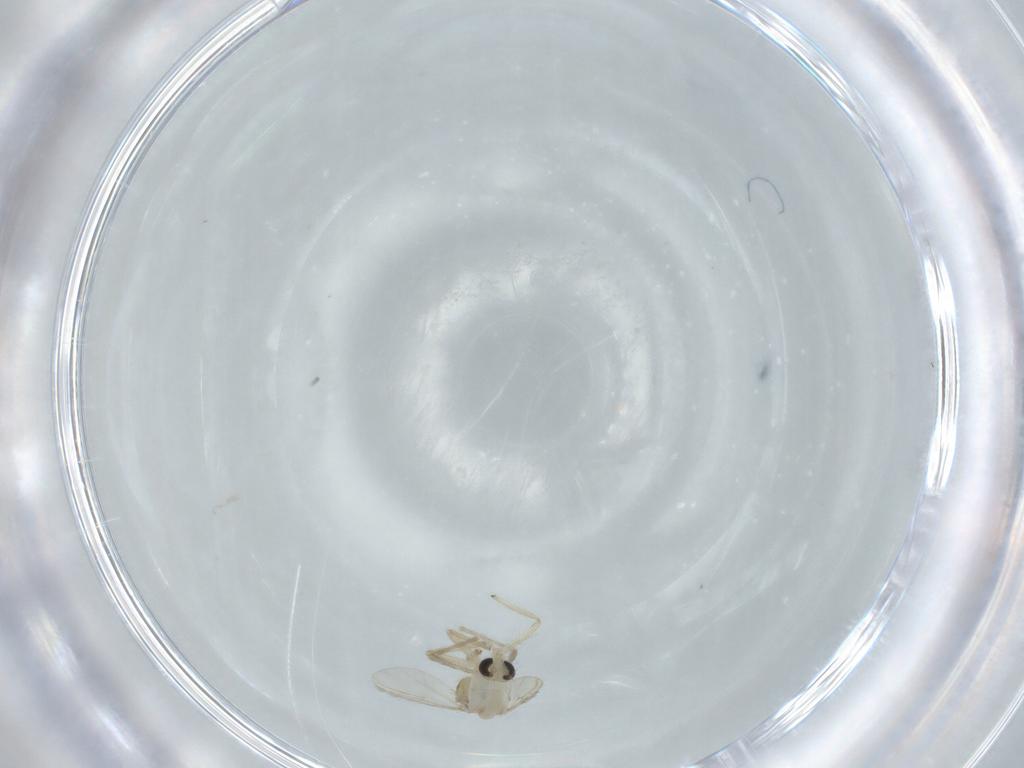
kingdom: Animalia
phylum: Arthropoda
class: Insecta
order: Diptera
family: Chironomidae
